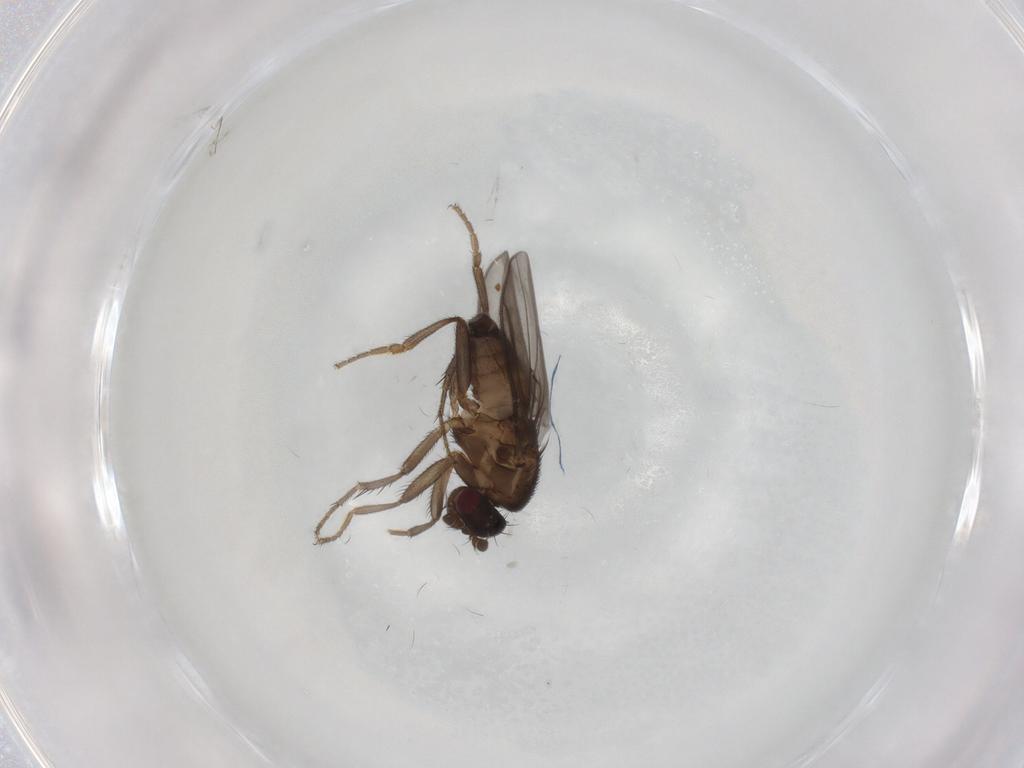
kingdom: Animalia
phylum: Arthropoda
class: Insecta
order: Diptera
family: Sphaeroceridae
